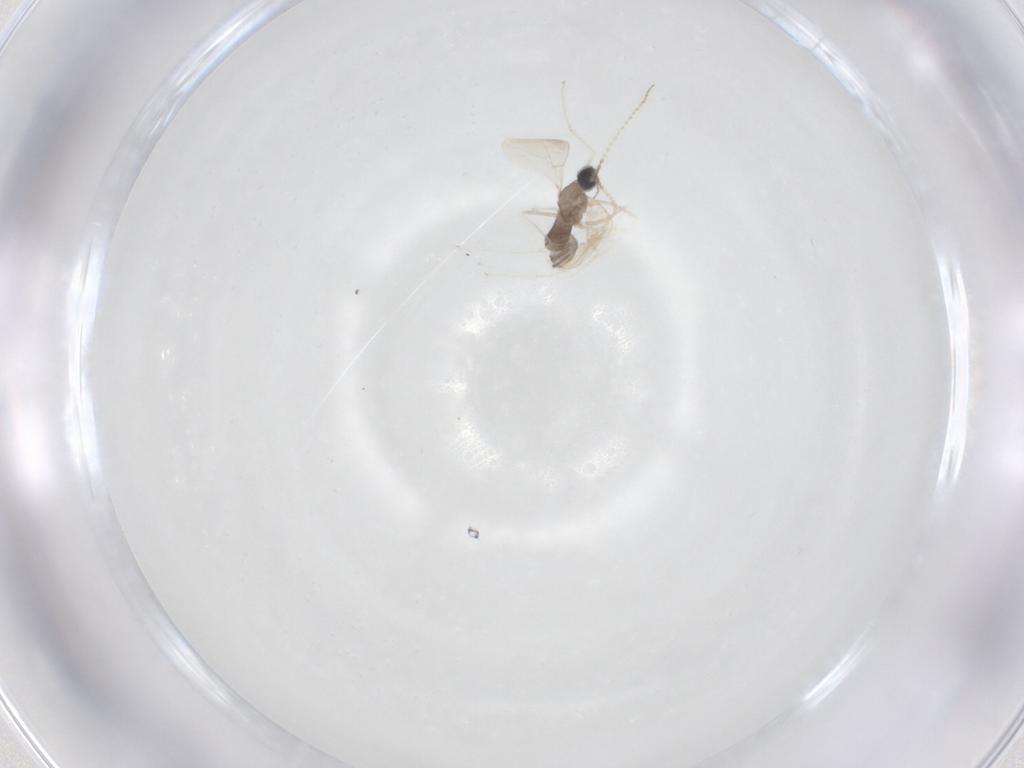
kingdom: Animalia
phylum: Arthropoda
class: Insecta
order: Diptera
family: Cecidomyiidae
